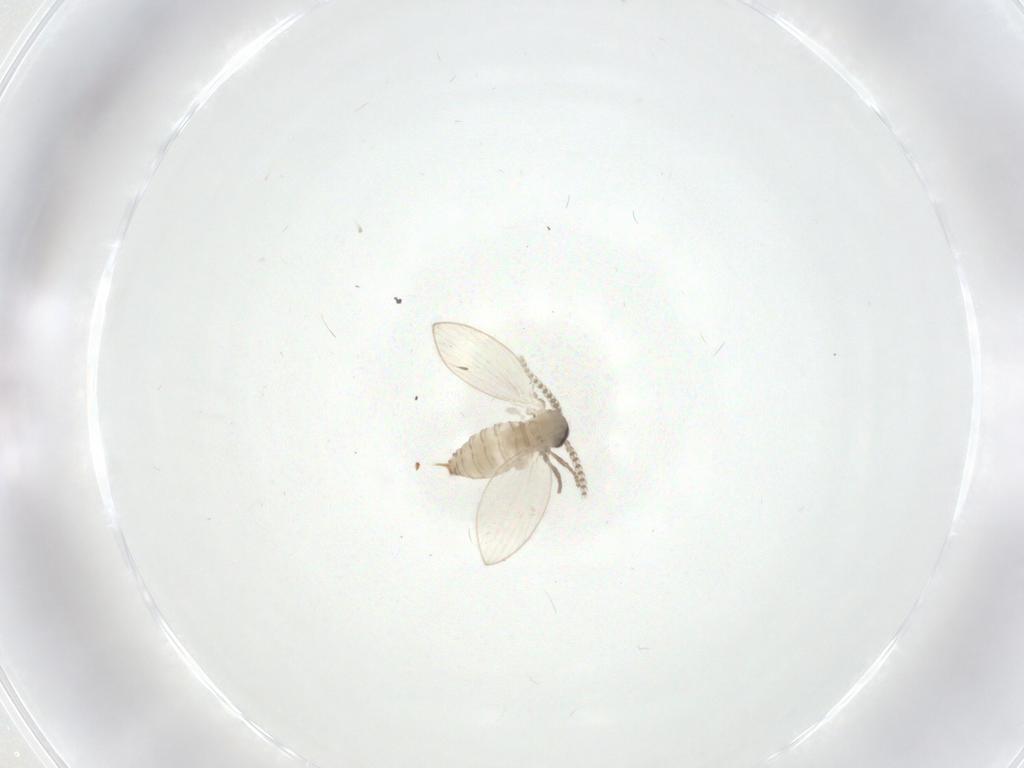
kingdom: Animalia
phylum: Arthropoda
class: Insecta
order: Diptera
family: Psychodidae
